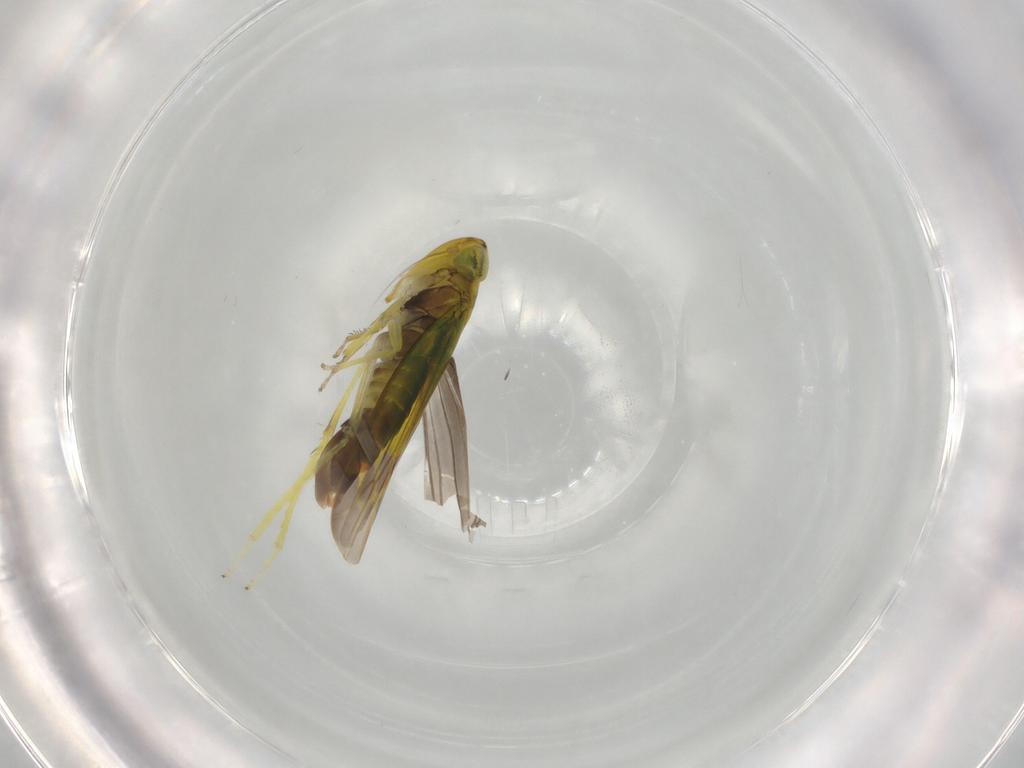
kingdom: Animalia
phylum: Arthropoda
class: Insecta
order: Hemiptera
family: Cicadellidae
